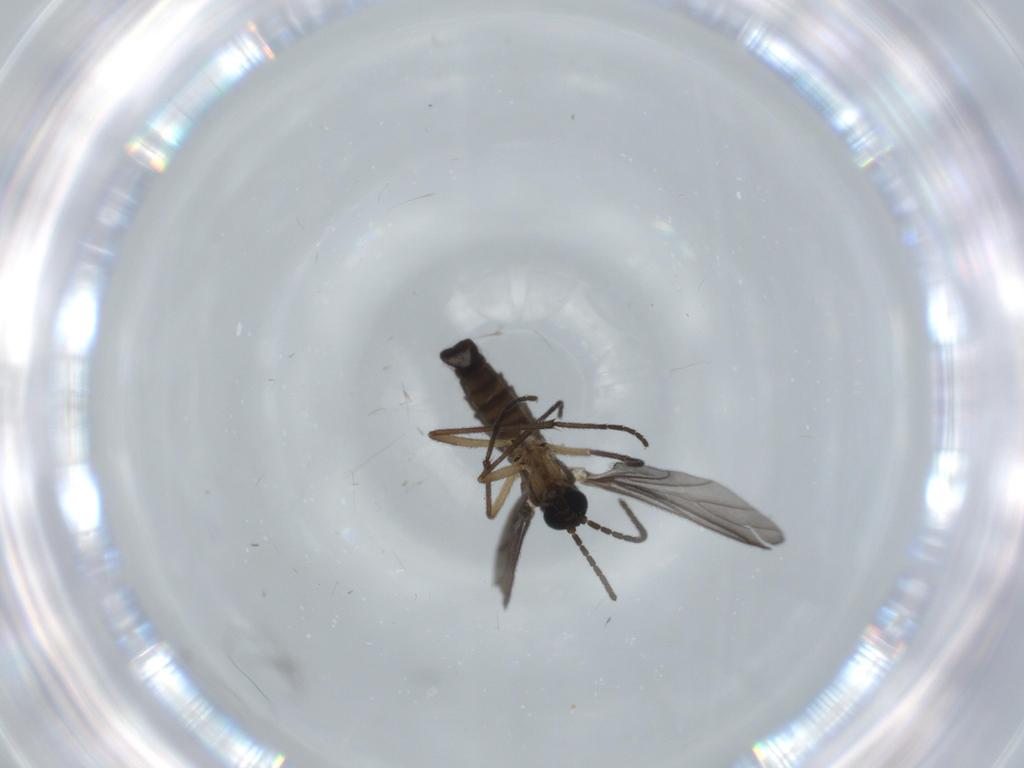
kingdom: Animalia
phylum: Arthropoda
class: Insecta
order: Diptera
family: Sciaridae
